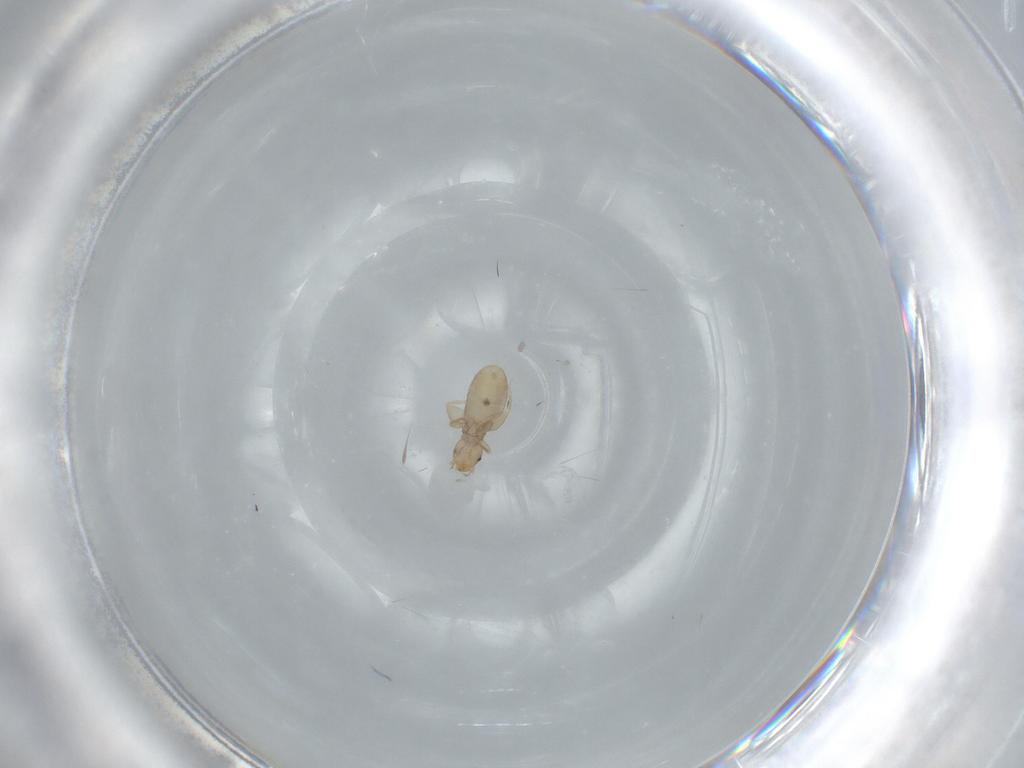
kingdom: Animalia
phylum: Arthropoda
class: Insecta
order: Psocodea
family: Liposcelididae
